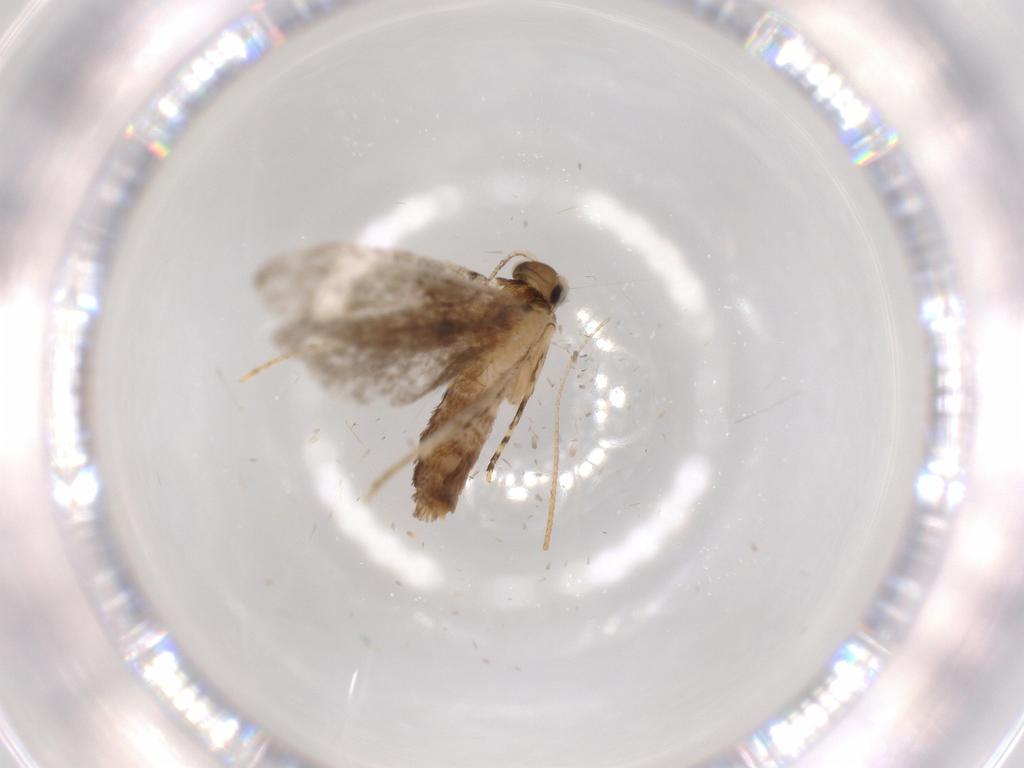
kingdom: Animalia
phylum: Arthropoda
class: Insecta
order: Lepidoptera
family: Tineidae
